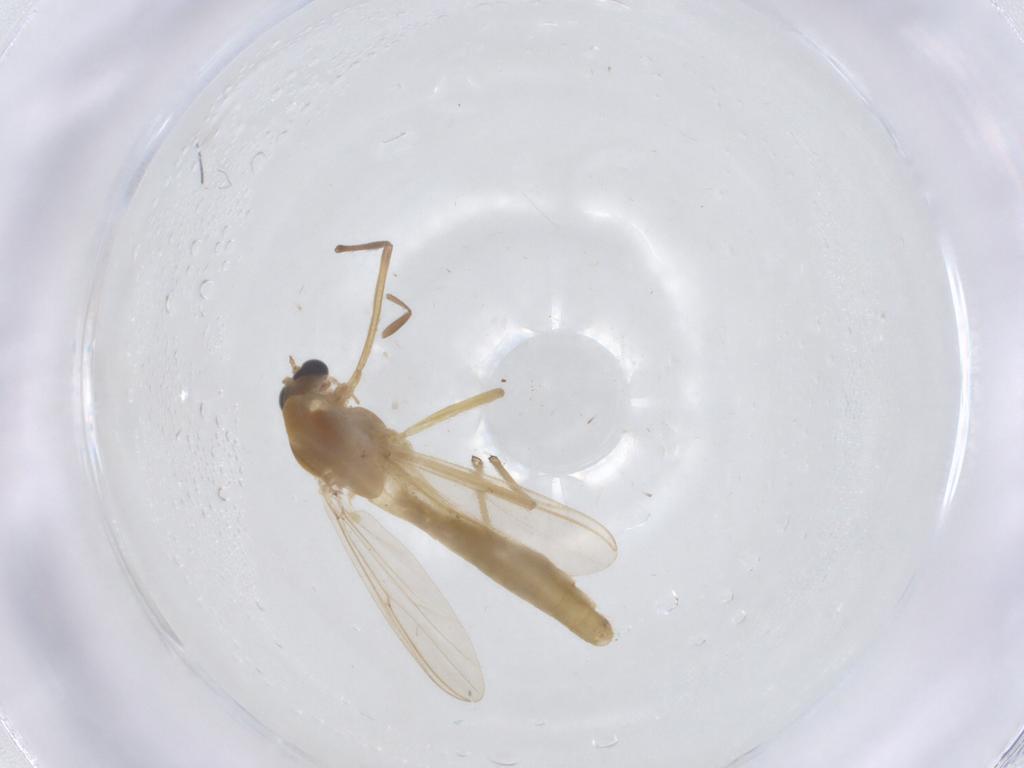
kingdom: Animalia
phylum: Arthropoda
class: Insecta
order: Diptera
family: Chironomidae
